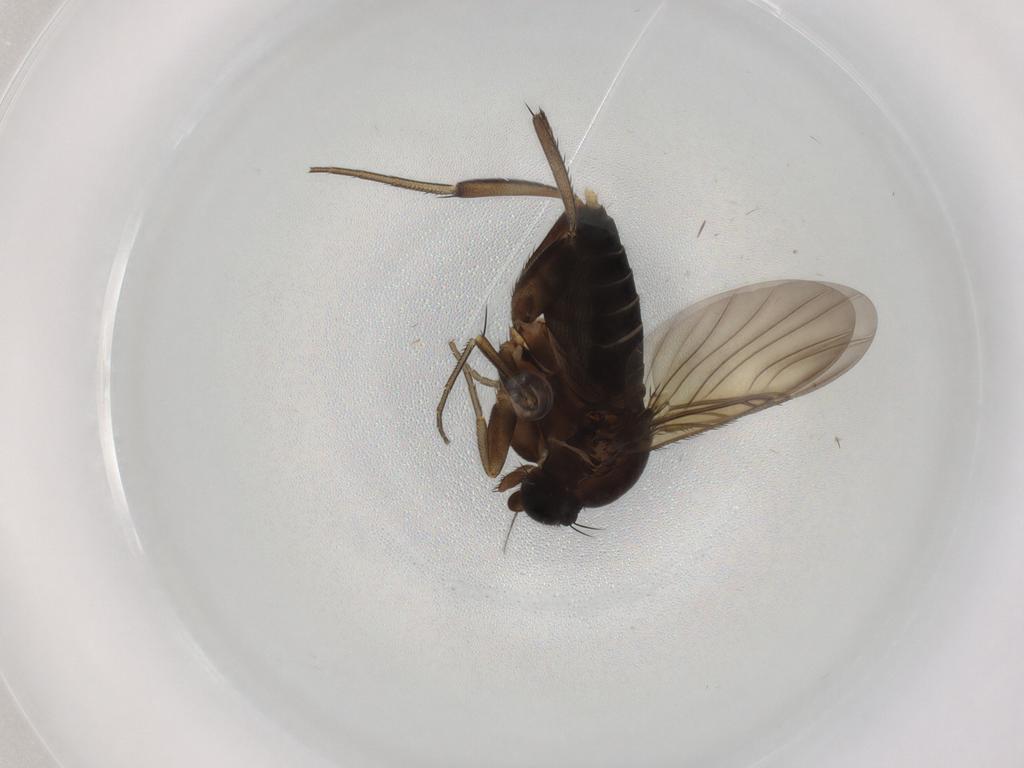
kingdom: Animalia
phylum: Arthropoda
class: Insecta
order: Diptera
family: Phoridae
